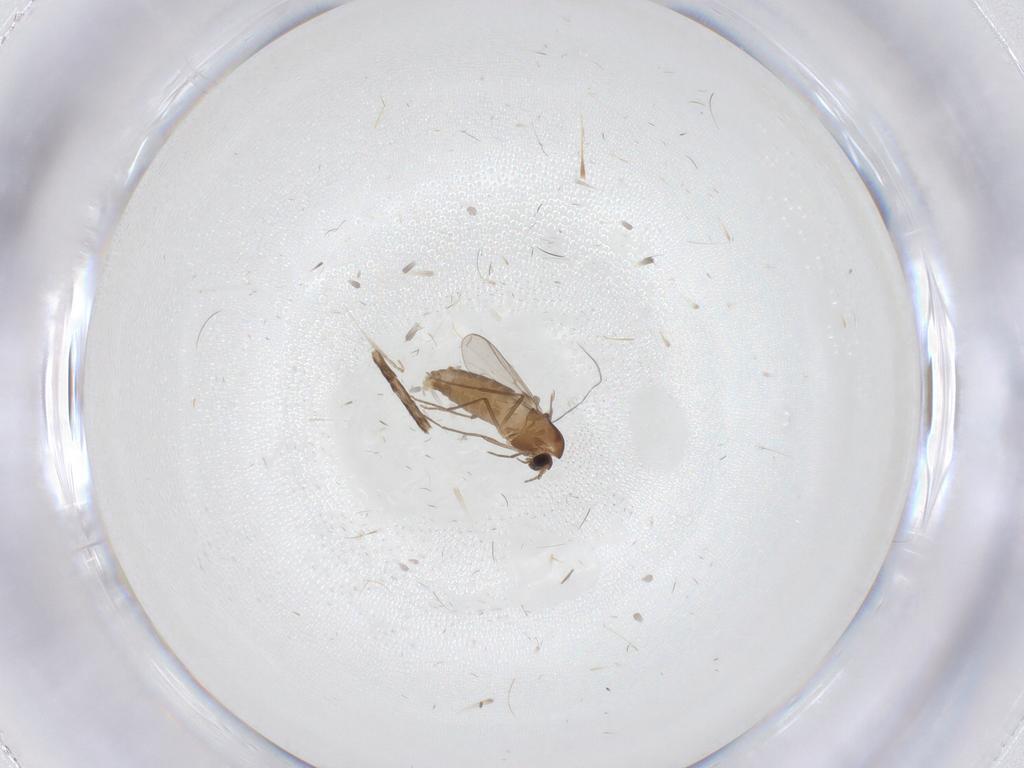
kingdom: Animalia
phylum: Arthropoda
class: Insecta
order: Diptera
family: Chironomidae
